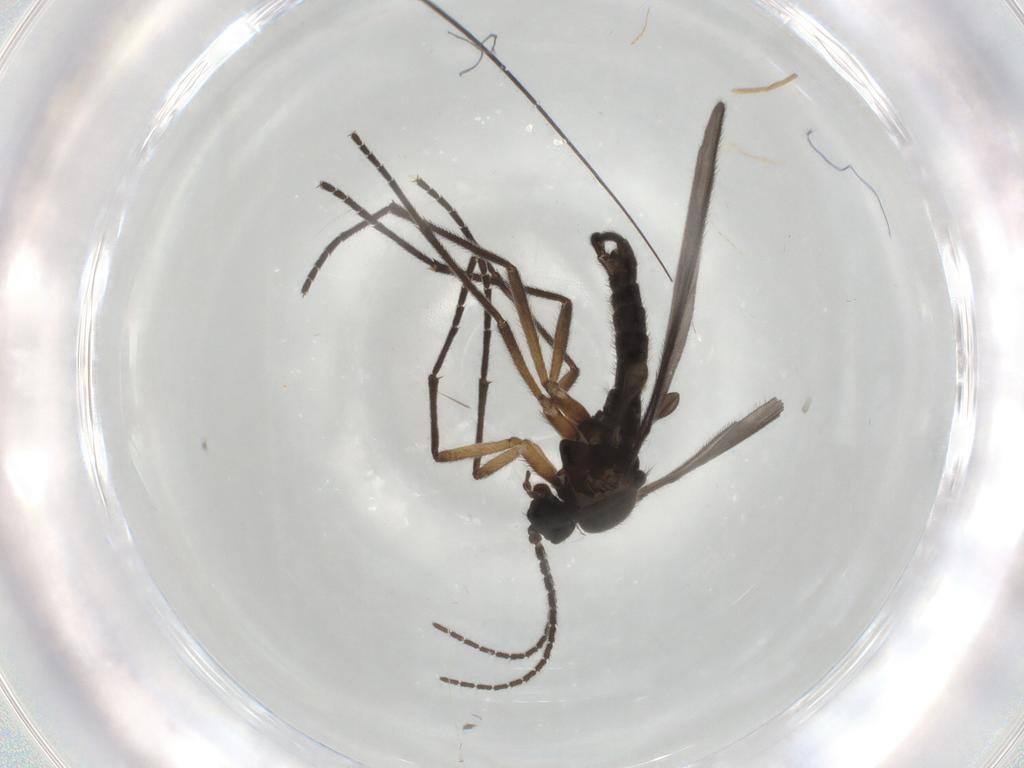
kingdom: Animalia
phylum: Arthropoda
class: Insecta
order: Diptera
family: Sciaridae
